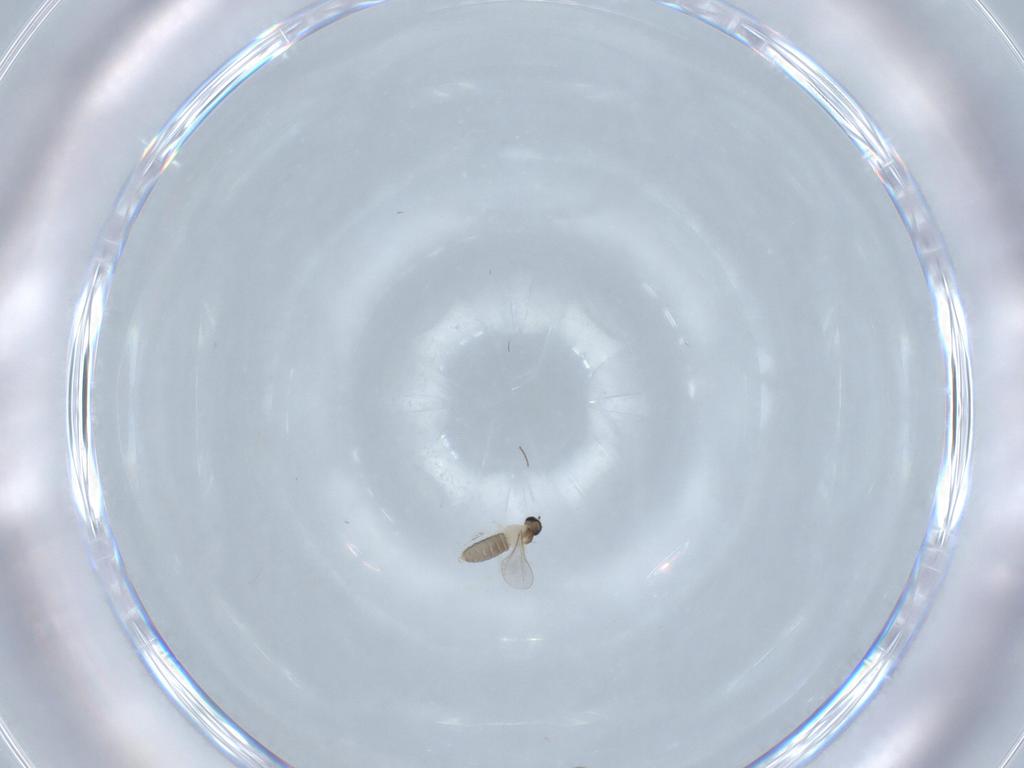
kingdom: Animalia
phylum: Arthropoda
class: Insecta
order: Diptera
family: Cecidomyiidae
